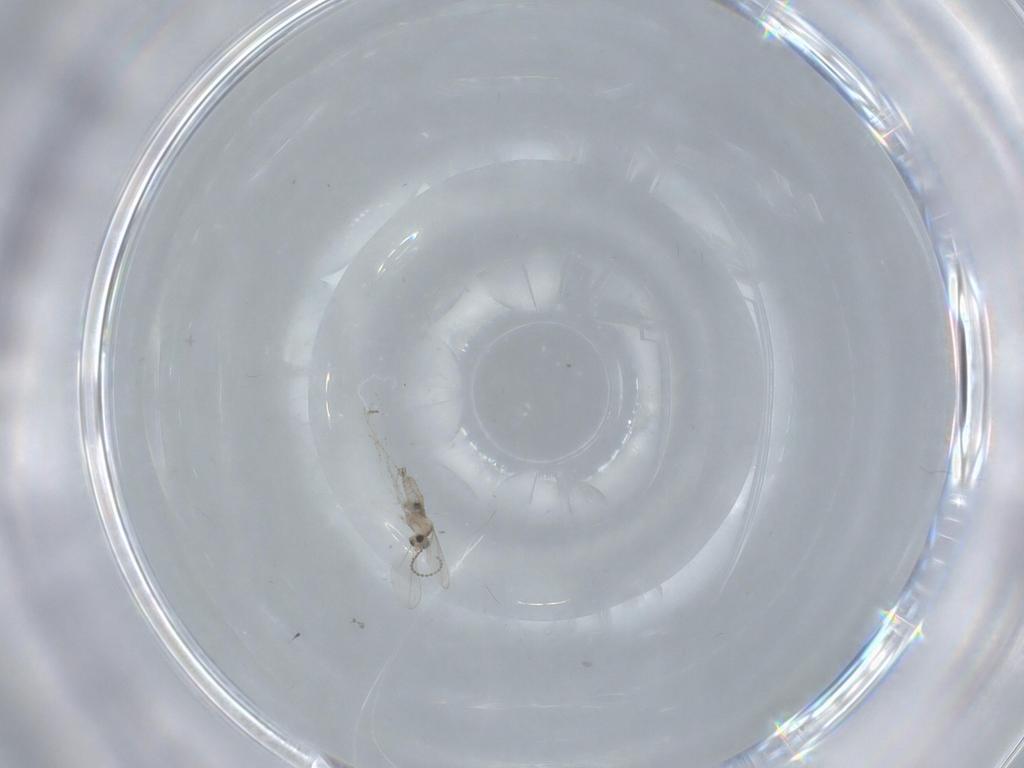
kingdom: Animalia
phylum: Arthropoda
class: Insecta
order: Diptera
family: Cecidomyiidae
